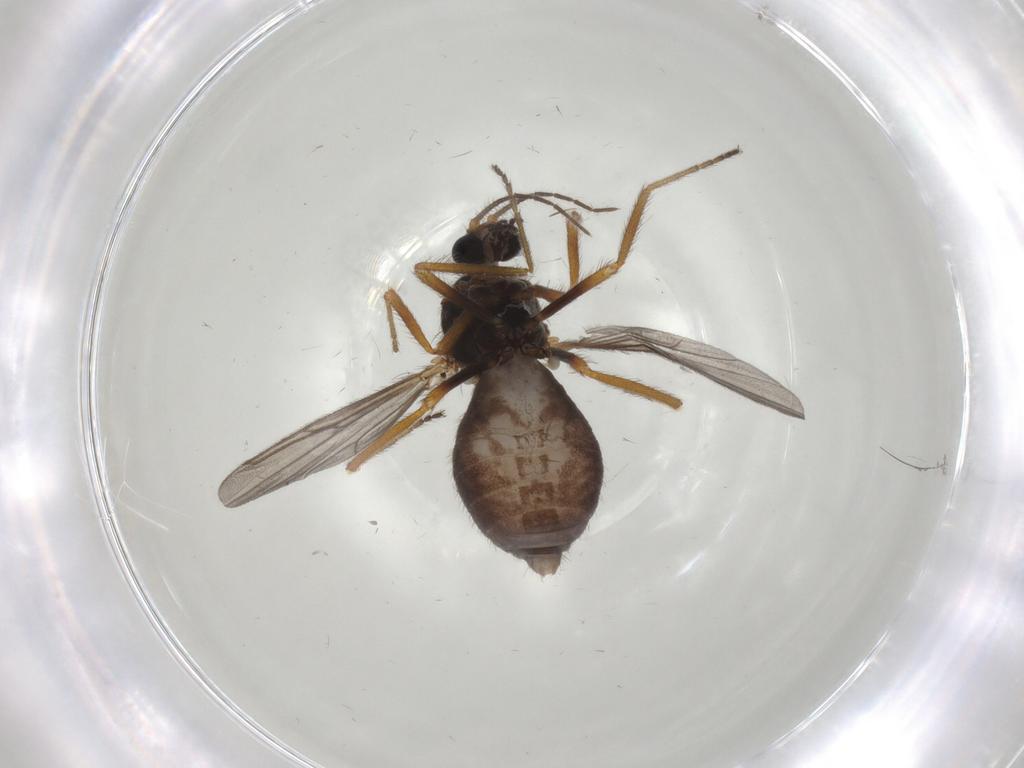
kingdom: Animalia
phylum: Arthropoda
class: Insecta
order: Diptera
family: Ceratopogonidae
